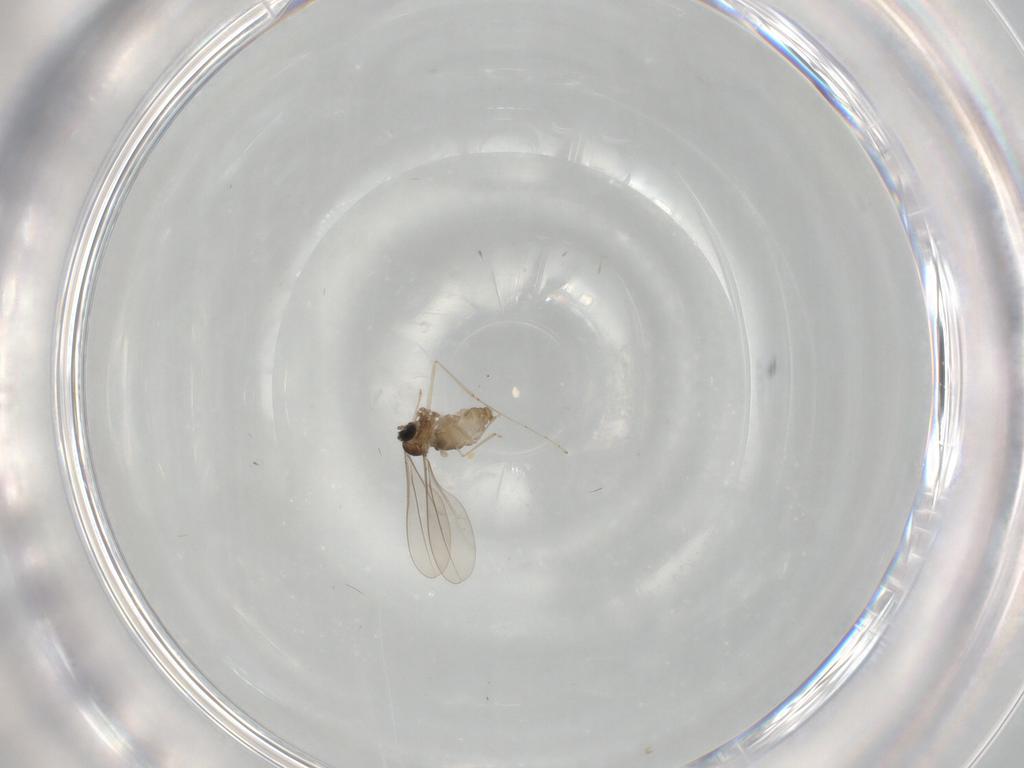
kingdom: Animalia
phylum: Arthropoda
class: Insecta
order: Diptera
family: Cecidomyiidae
